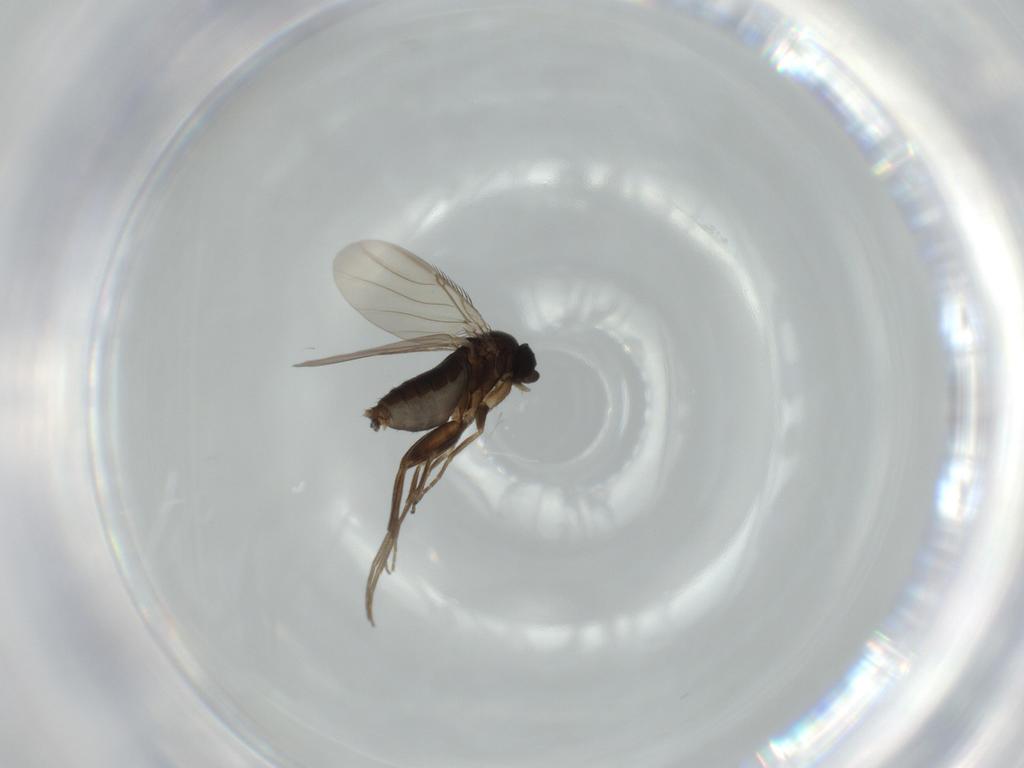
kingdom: Animalia
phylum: Arthropoda
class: Insecta
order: Diptera
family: Phoridae
